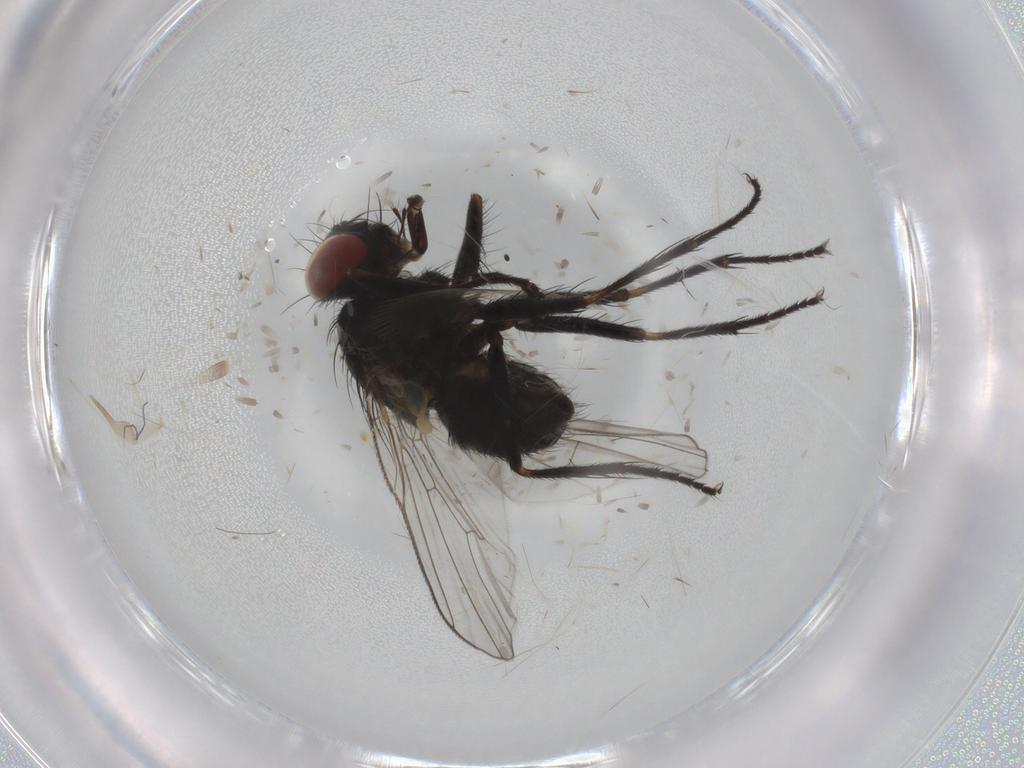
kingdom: Animalia
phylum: Arthropoda
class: Insecta
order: Diptera
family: Muscidae
